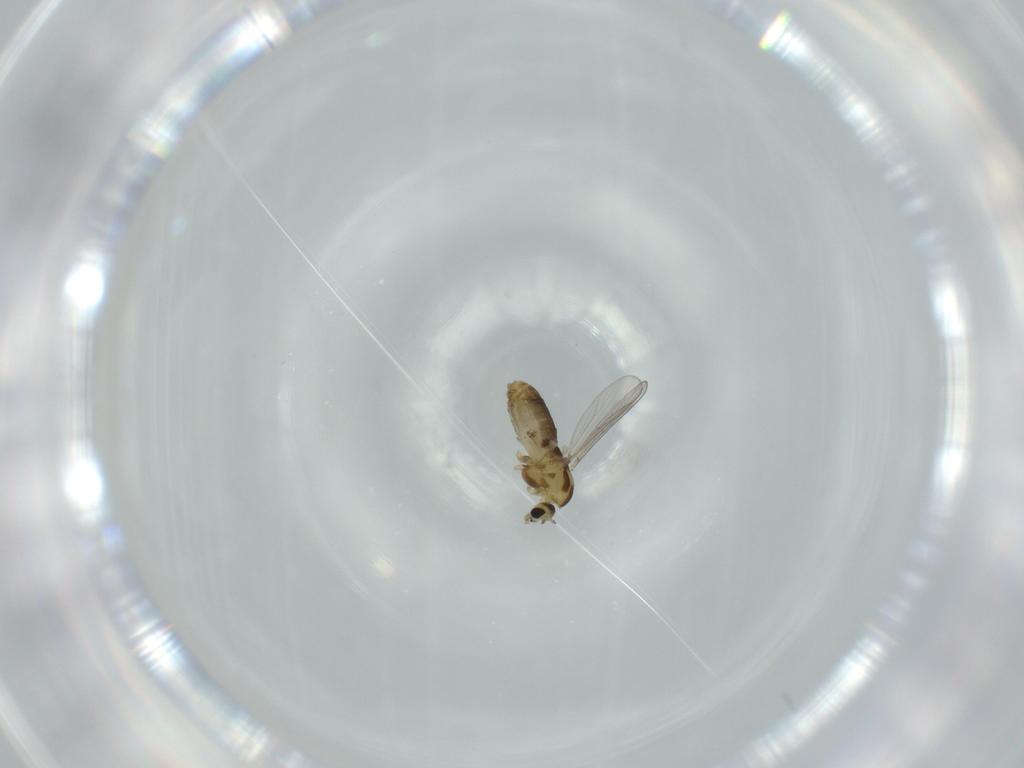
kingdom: Animalia
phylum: Arthropoda
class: Insecta
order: Diptera
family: Chironomidae
